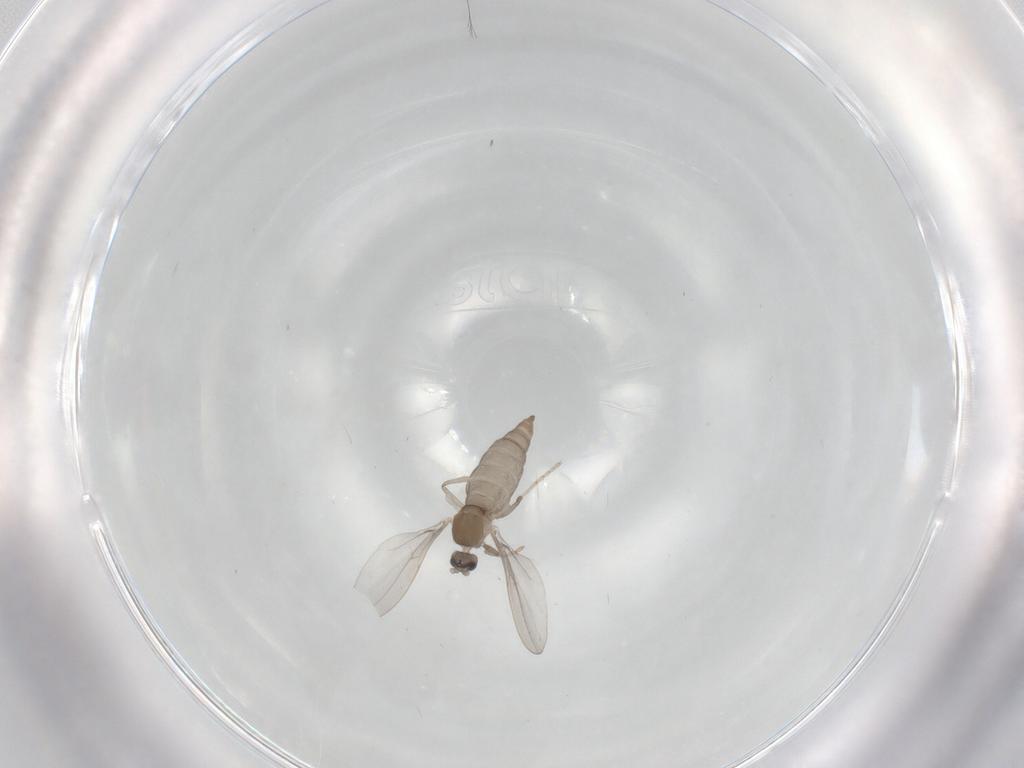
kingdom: Animalia
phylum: Arthropoda
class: Insecta
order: Diptera
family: Cecidomyiidae
